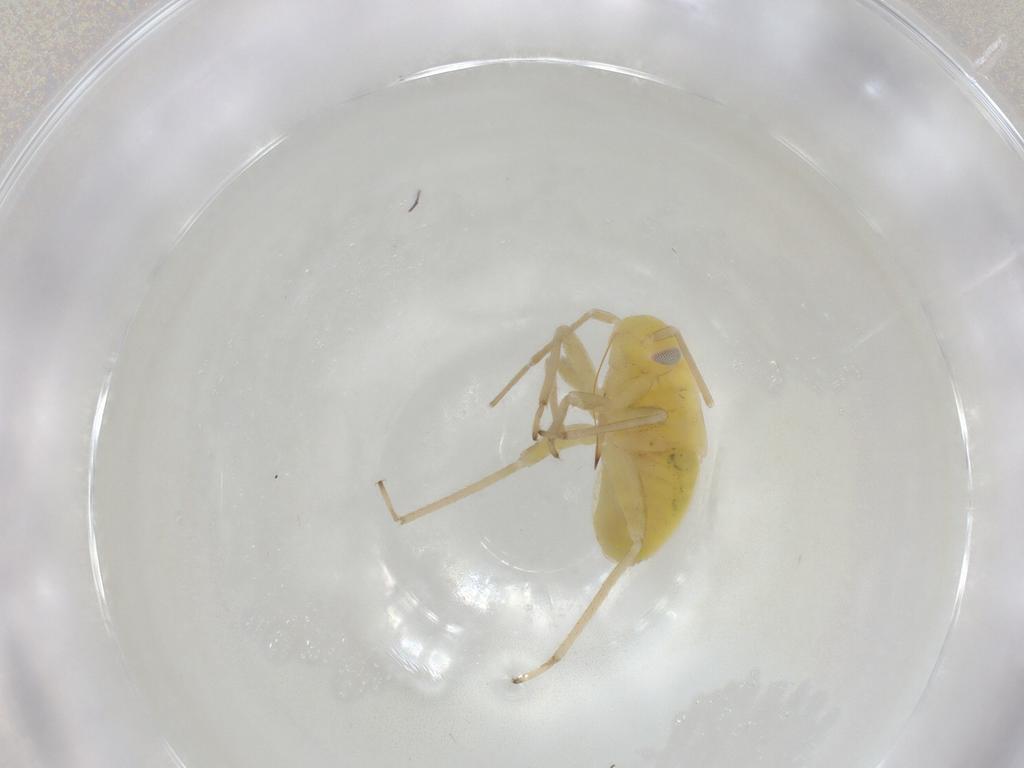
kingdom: Animalia
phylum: Arthropoda
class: Insecta
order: Hemiptera
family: Miridae
